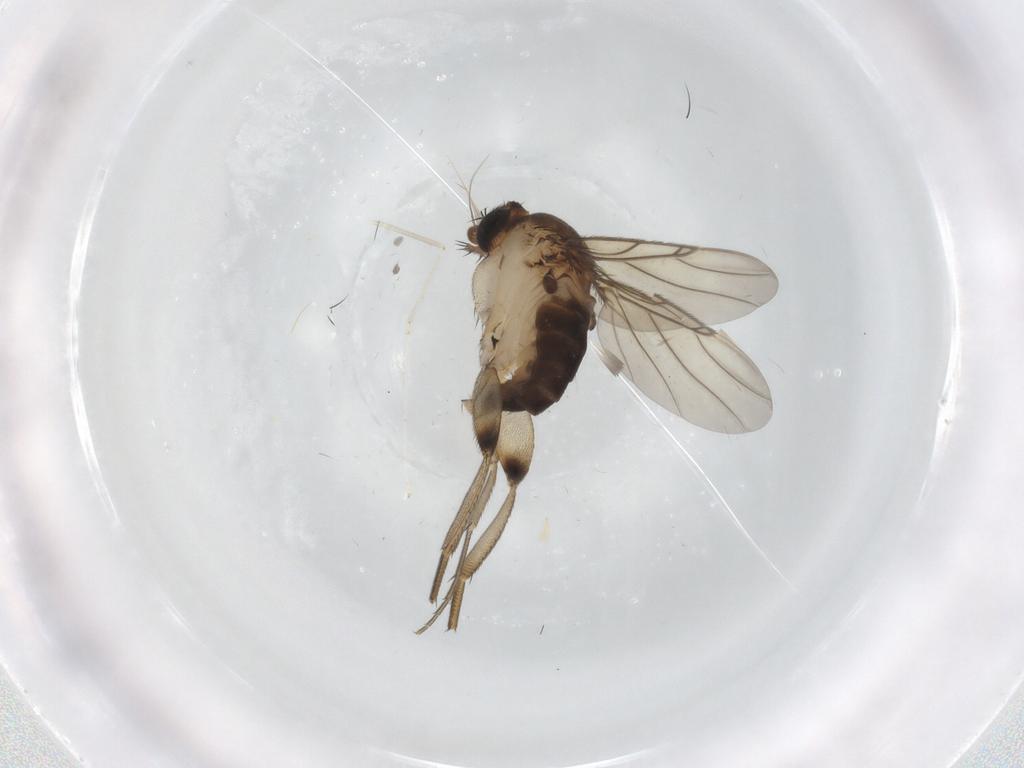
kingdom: Animalia
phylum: Arthropoda
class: Insecta
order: Diptera
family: Phoridae
